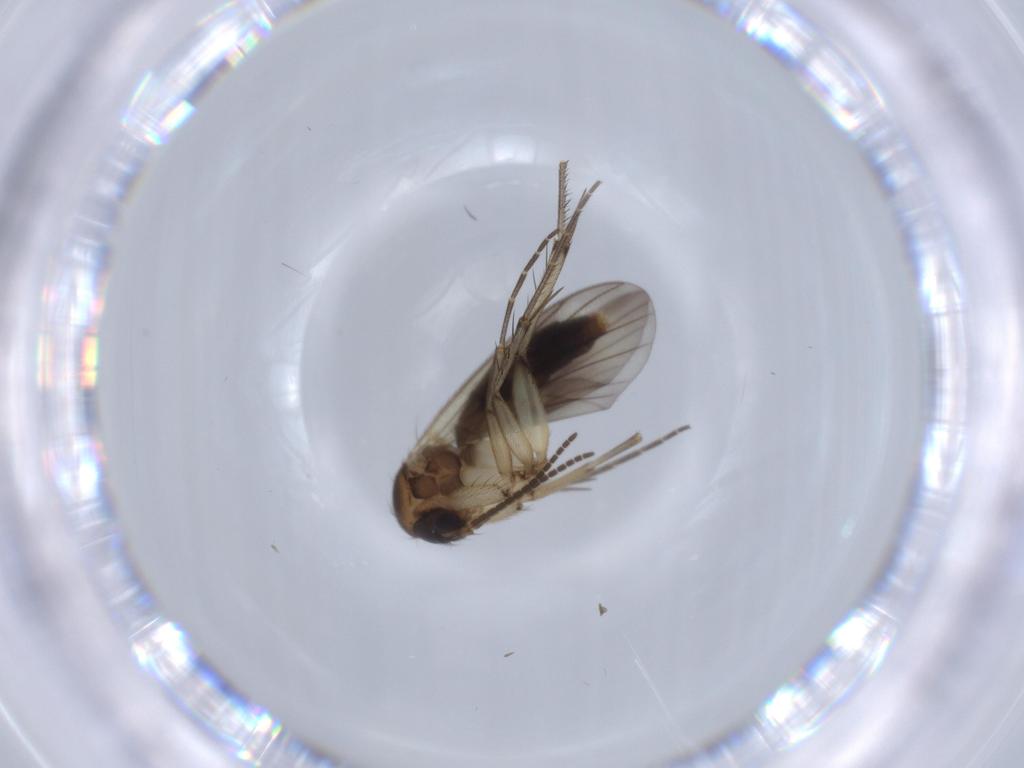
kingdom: Animalia
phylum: Arthropoda
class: Insecta
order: Diptera
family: Sciaridae
